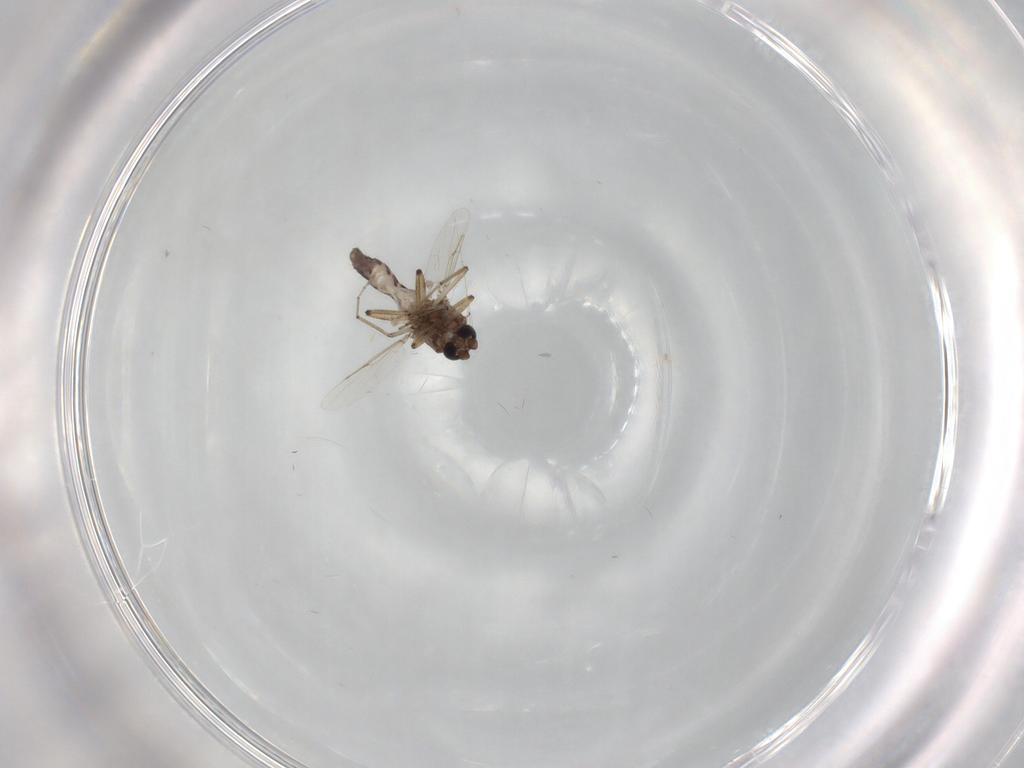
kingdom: Animalia
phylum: Arthropoda
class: Insecta
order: Diptera
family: Ceratopogonidae
